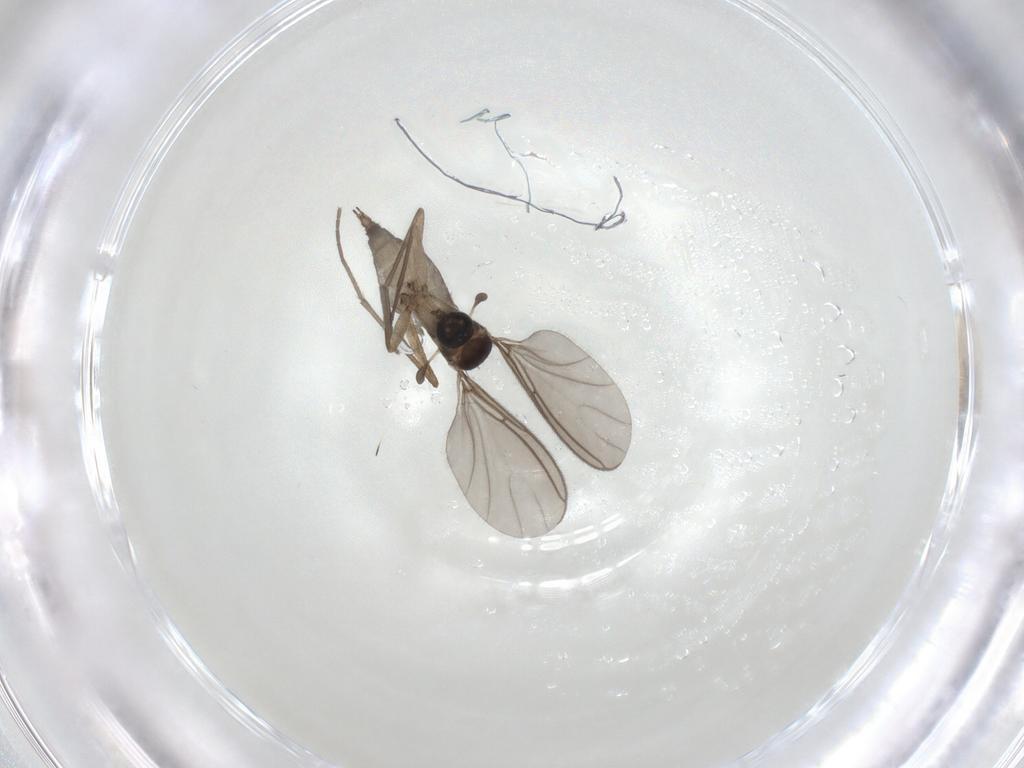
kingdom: Animalia
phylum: Arthropoda
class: Insecta
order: Diptera
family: Sciaridae
